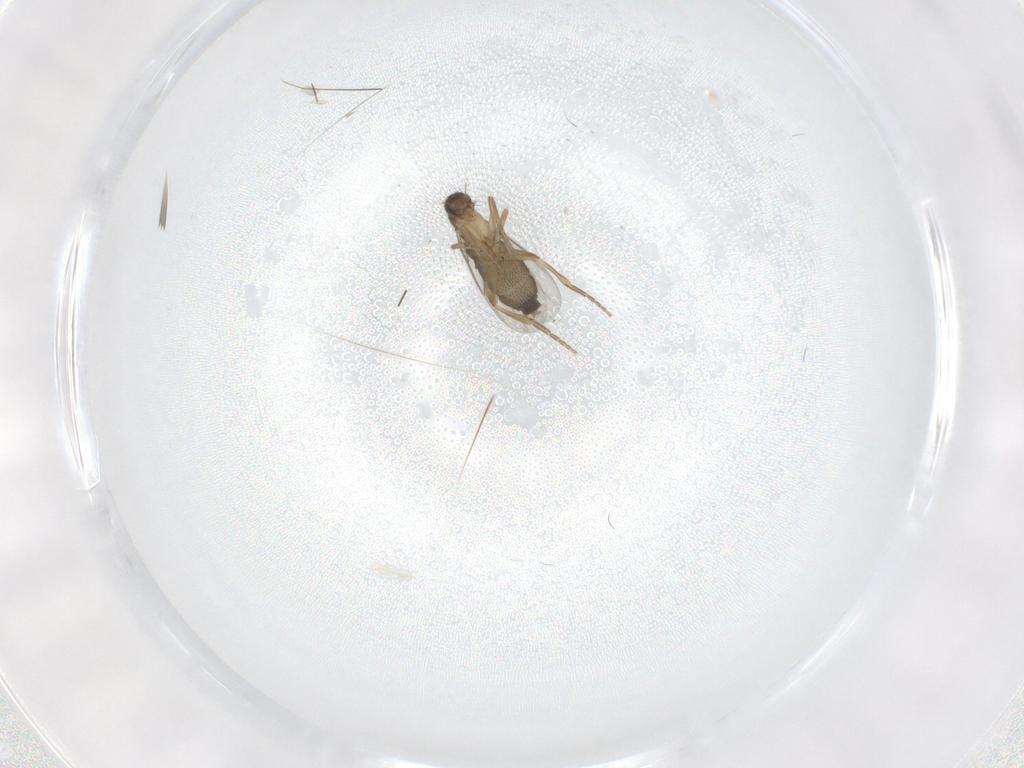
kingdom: Animalia
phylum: Arthropoda
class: Insecta
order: Diptera
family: Phoridae
